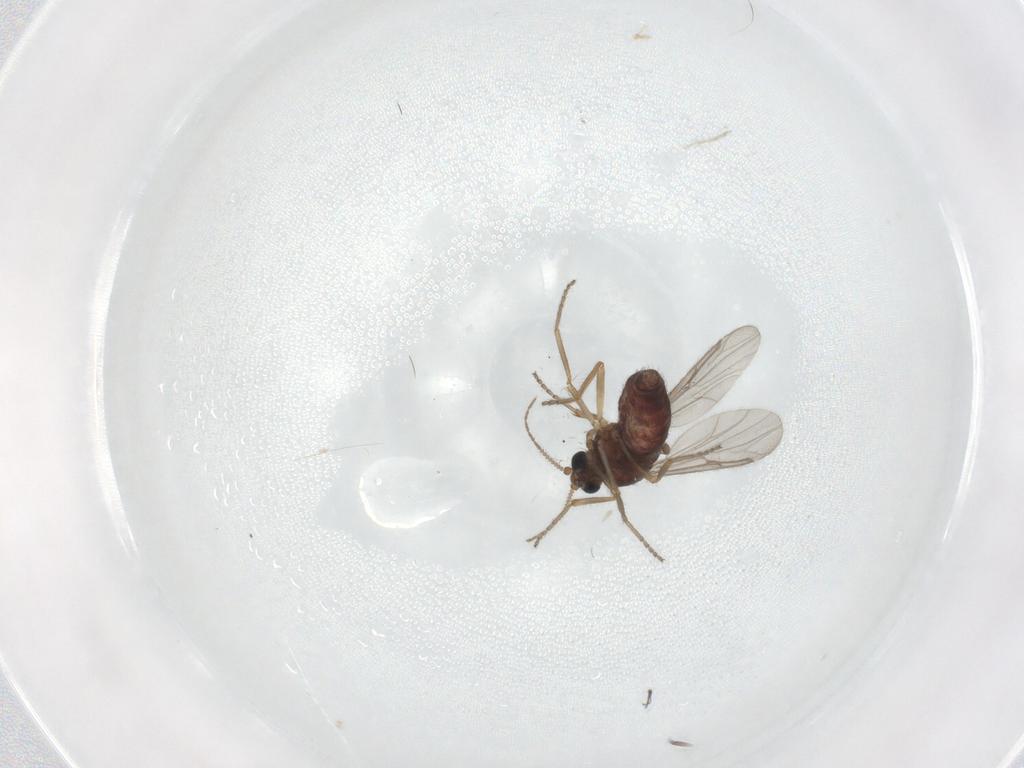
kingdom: Animalia
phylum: Arthropoda
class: Insecta
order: Diptera
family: Ceratopogonidae
